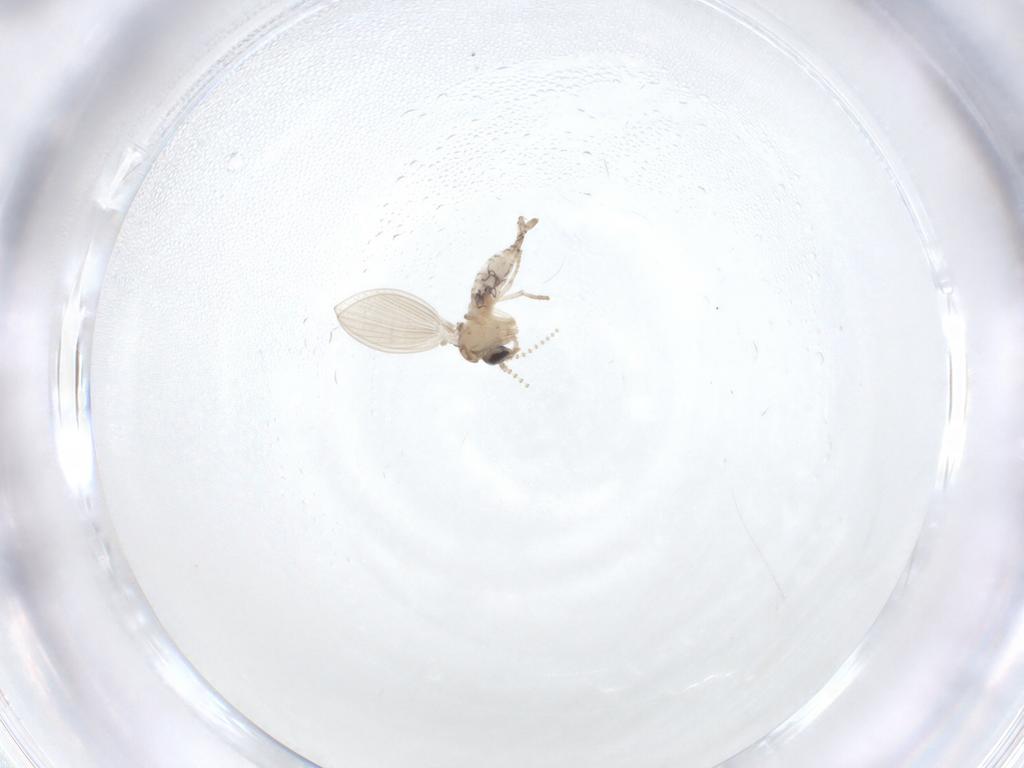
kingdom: Animalia
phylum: Arthropoda
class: Insecta
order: Diptera
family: Psychodidae
